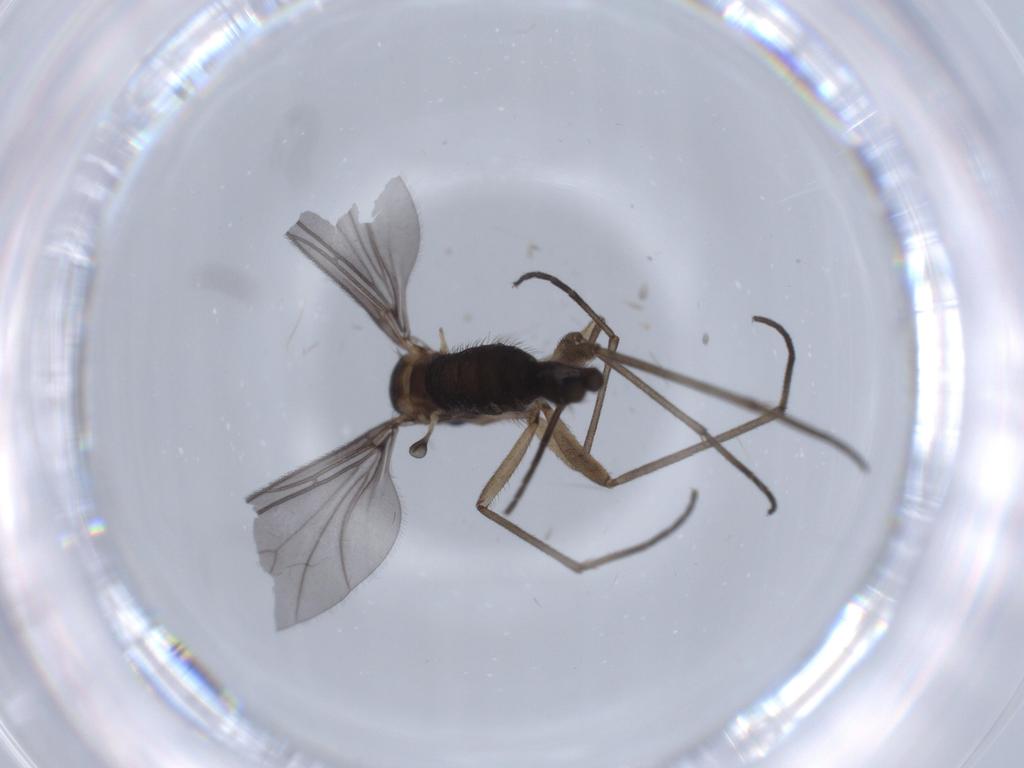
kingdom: Animalia
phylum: Arthropoda
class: Insecta
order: Diptera
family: Sciaridae
